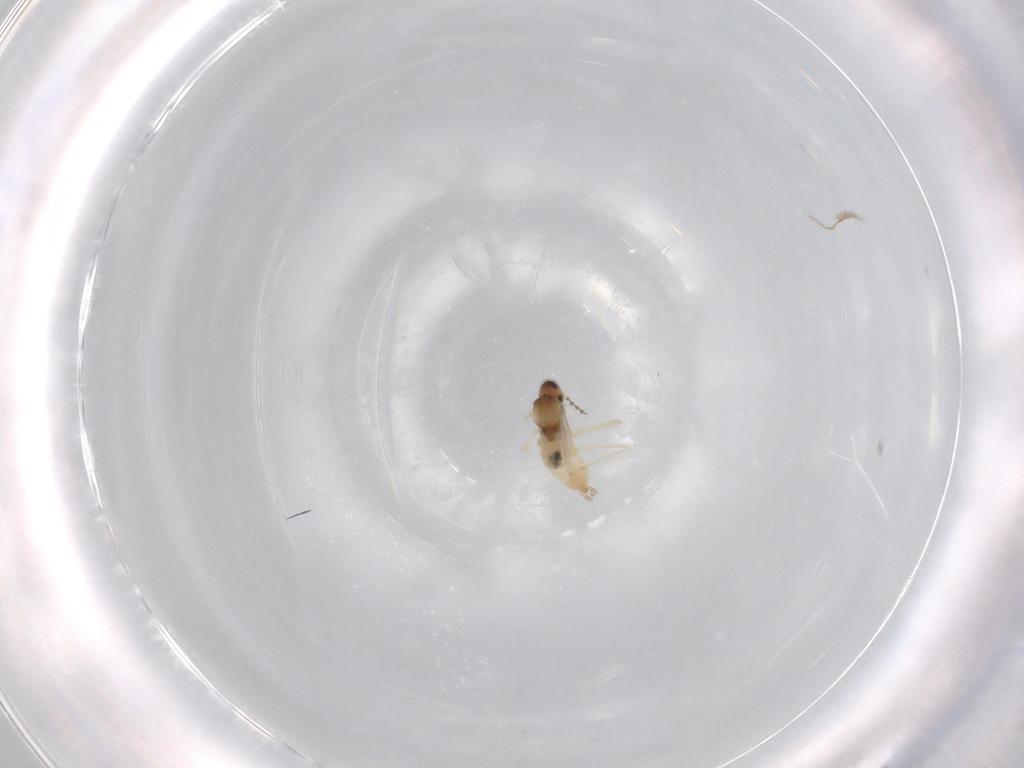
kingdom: Animalia
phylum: Arthropoda
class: Insecta
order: Diptera
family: Cecidomyiidae
